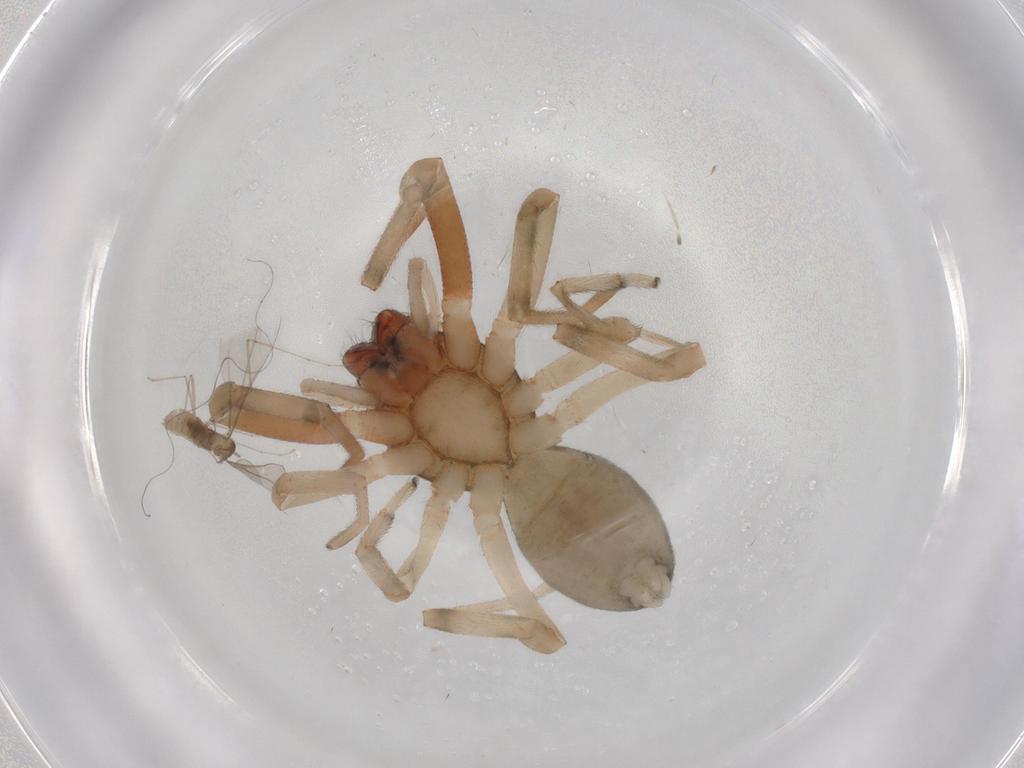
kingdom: Animalia
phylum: Arthropoda
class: Arachnida
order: Araneae
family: Trachelidae
